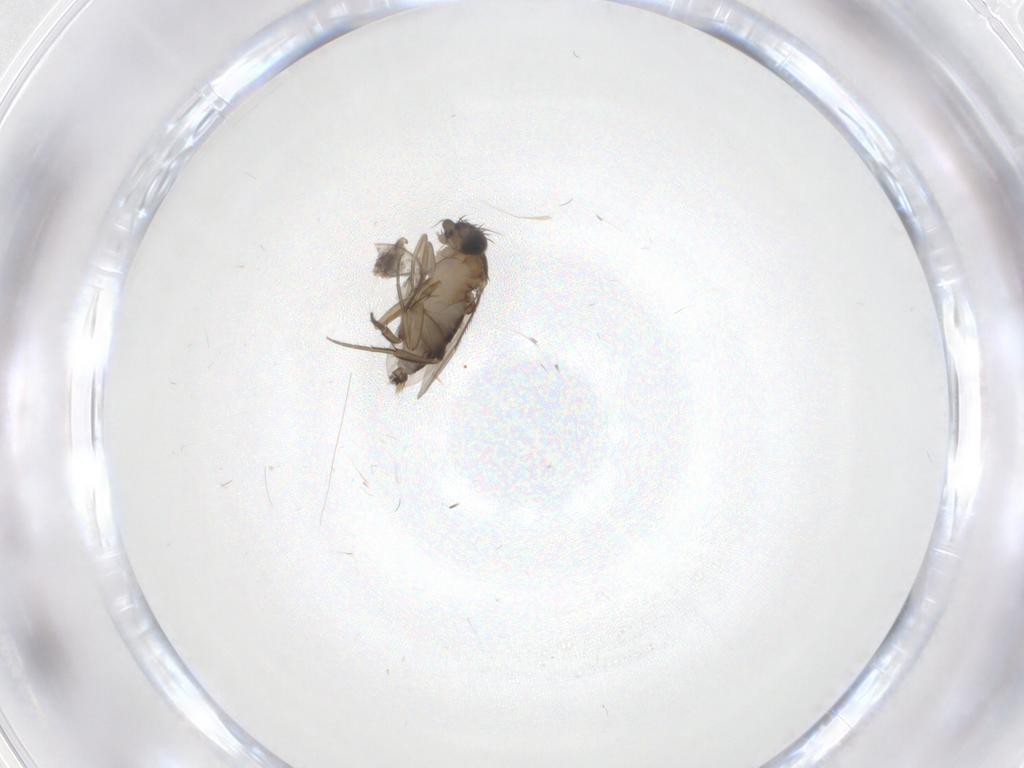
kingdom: Animalia
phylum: Arthropoda
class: Insecta
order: Diptera
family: Phoridae
